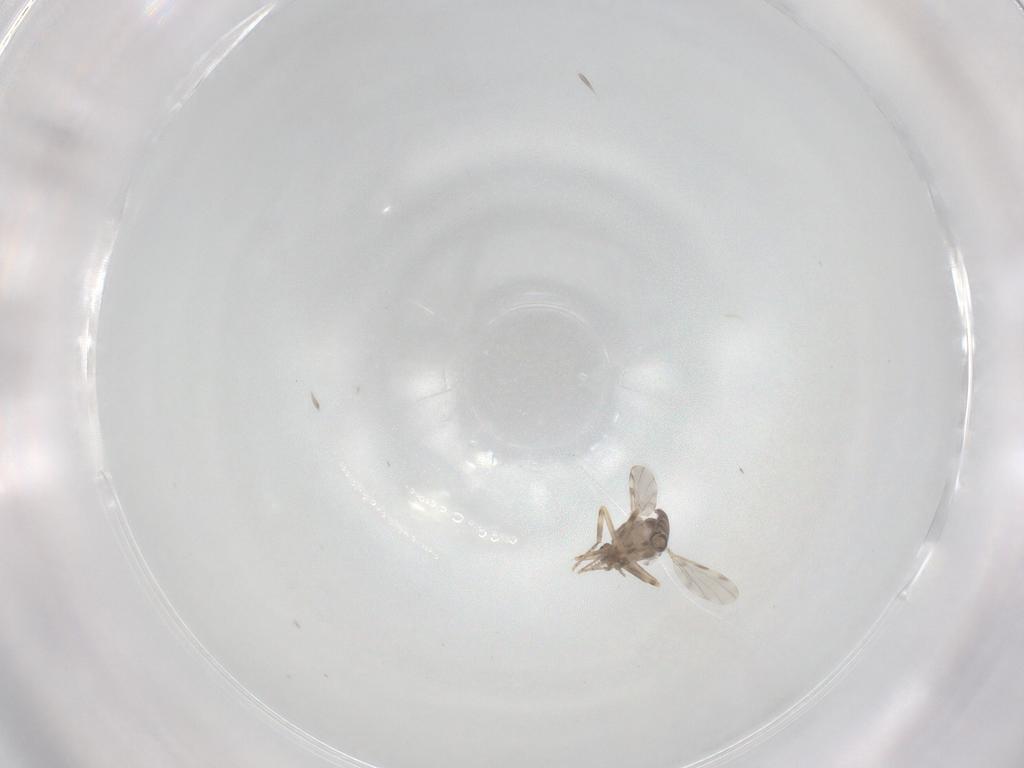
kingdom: Animalia
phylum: Arthropoda
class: Insecta
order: Diptera
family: Ceratopogonidae
